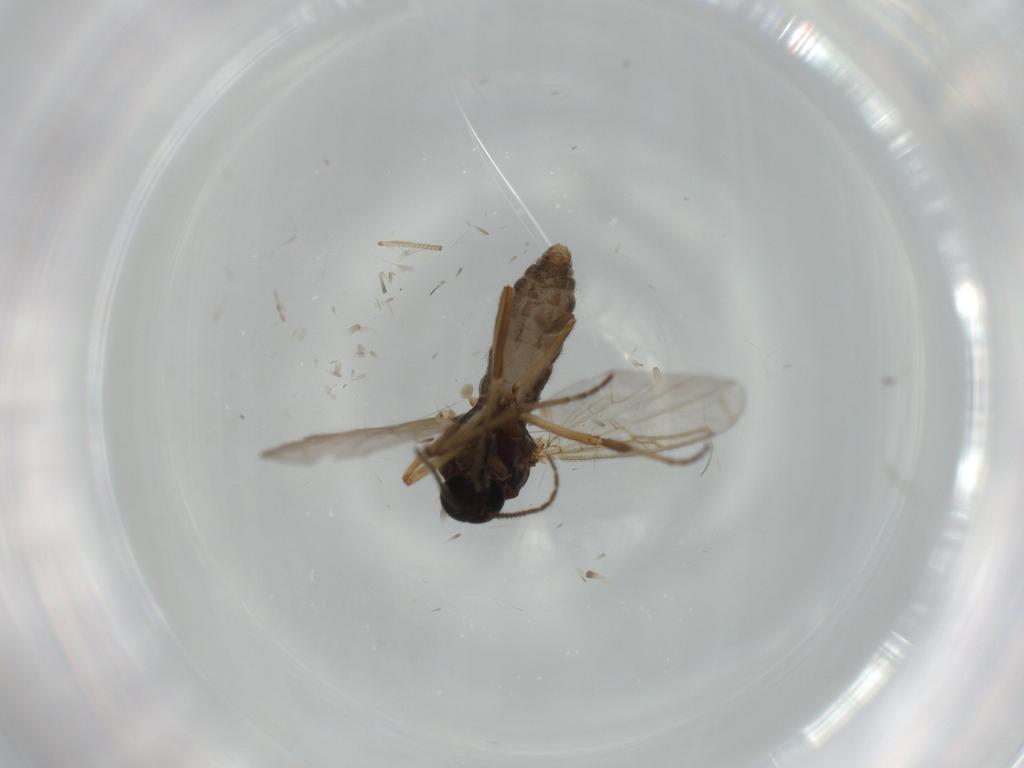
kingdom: Animalia
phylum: Arthropoda
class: Insecta
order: Diptera
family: Ceratopogonidae
